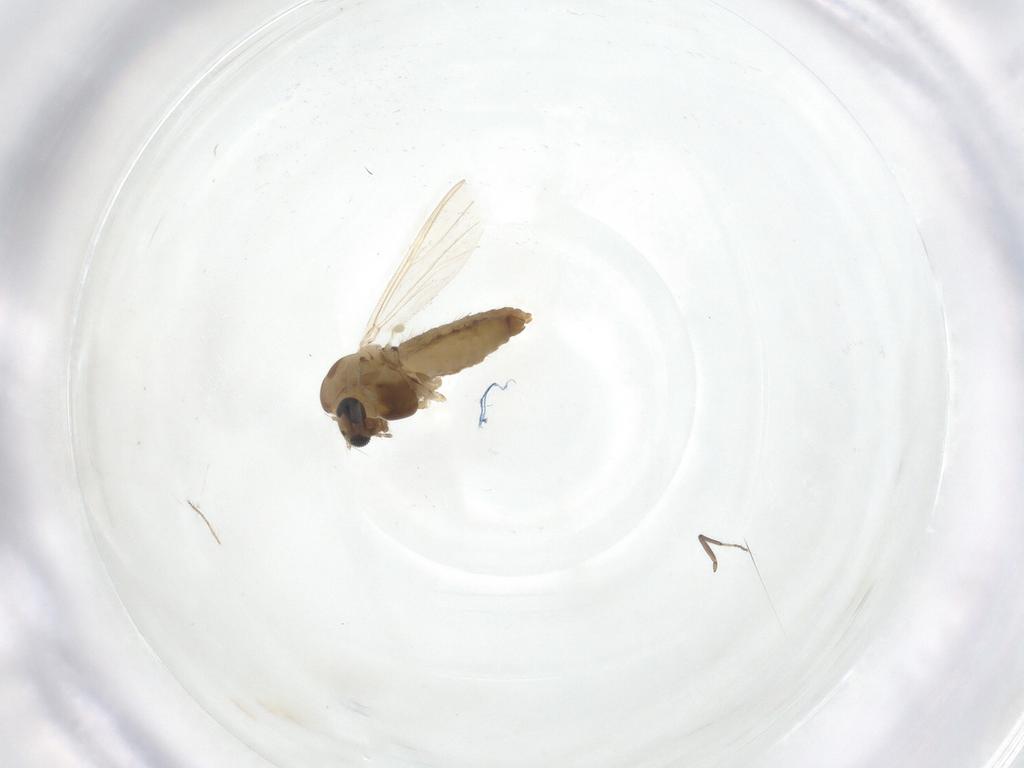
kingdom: Animalia
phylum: Arthropoda
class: Insecta
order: Diptera
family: Chironomidae
